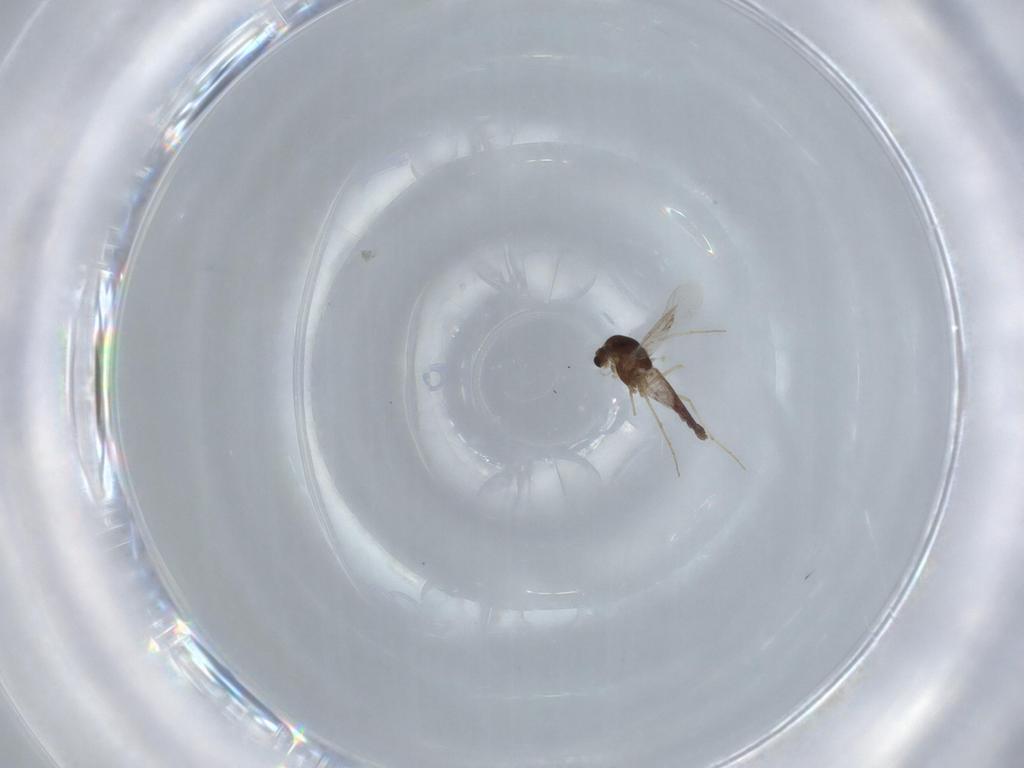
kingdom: Animalia
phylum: Arthropoda
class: Insecta
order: Diptera
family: Chironomidae
